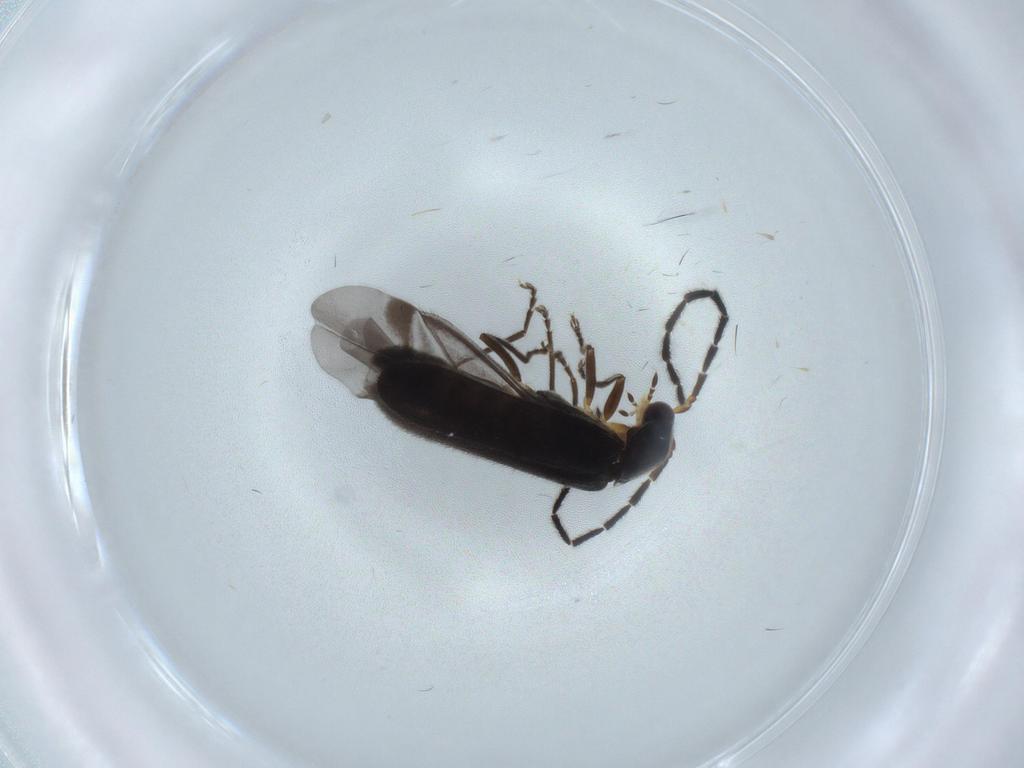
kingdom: Animalia
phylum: Arthropoda
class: Insecta
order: Coleoptera
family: Cantharidae
